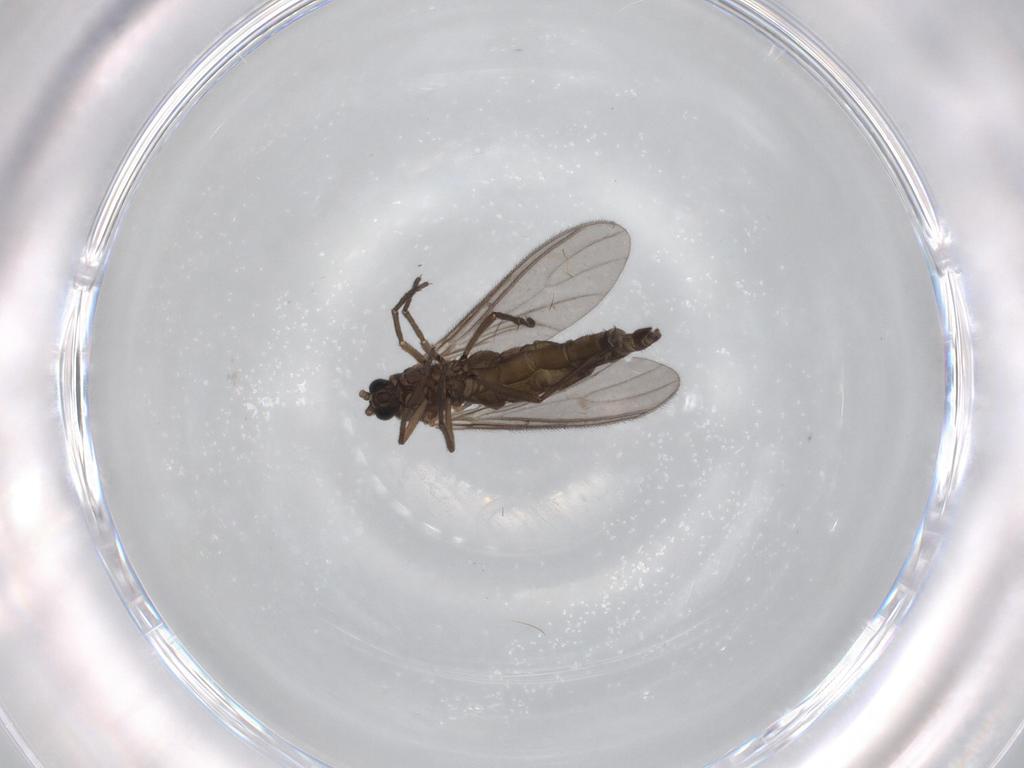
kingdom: Animalia
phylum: Arthropoda
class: Insecta
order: Diptera
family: Sciaridae
